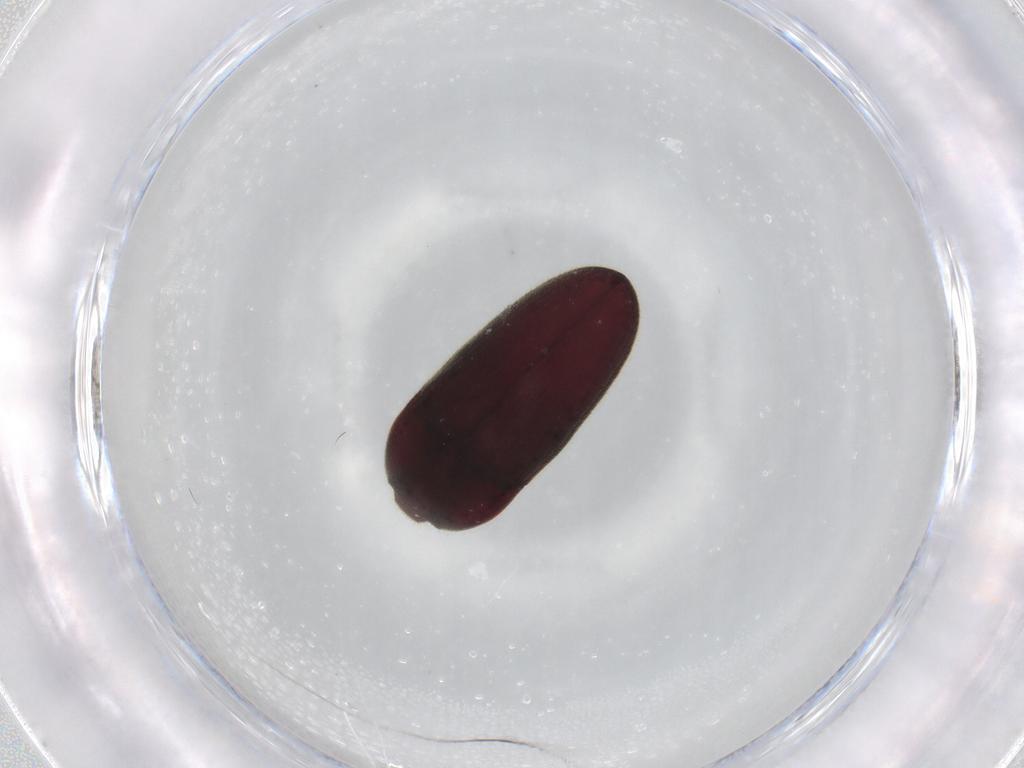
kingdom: Animalia
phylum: Arthropoda
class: Insecta
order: Coleoptera
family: Throscidae
